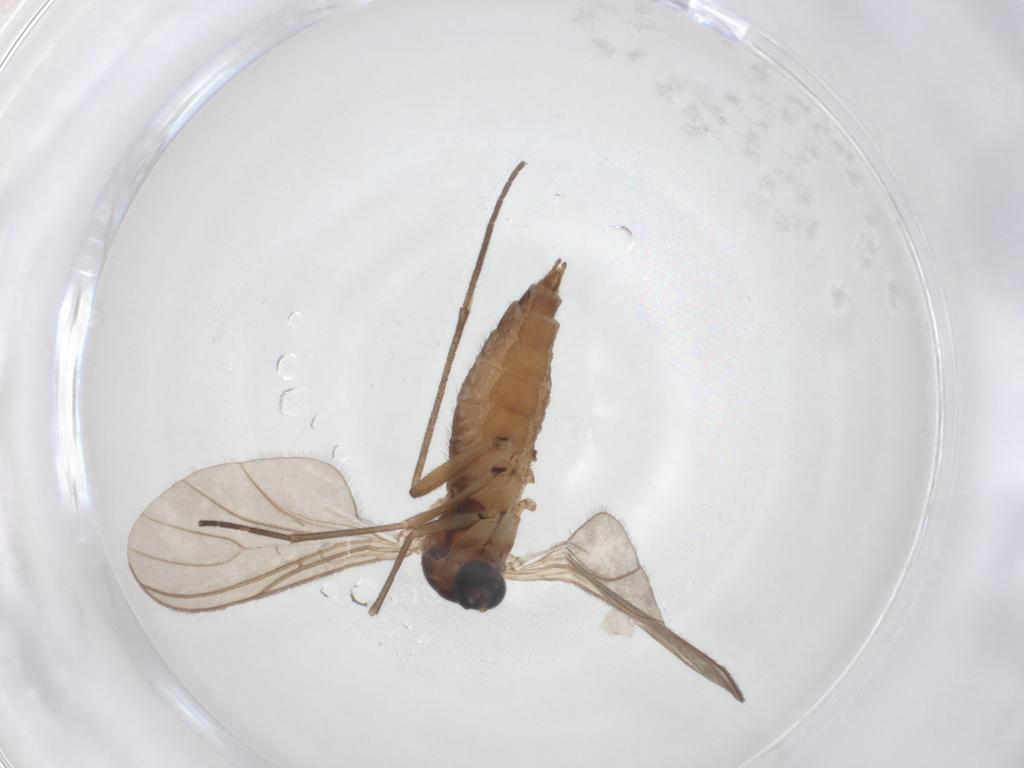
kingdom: Animalia
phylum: Arthropoda
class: Insecta
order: Diptera
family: Sciaridae
